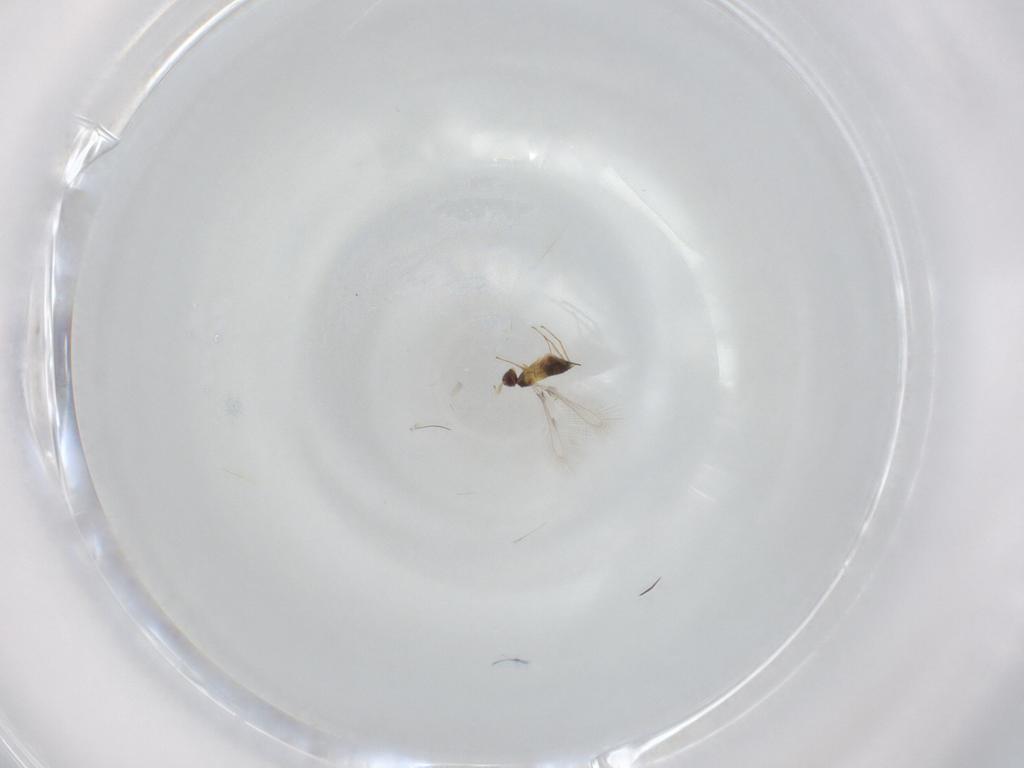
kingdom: Animalia
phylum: Arthropoda
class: Insecta
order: Hymenoptera
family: Mymaridae
